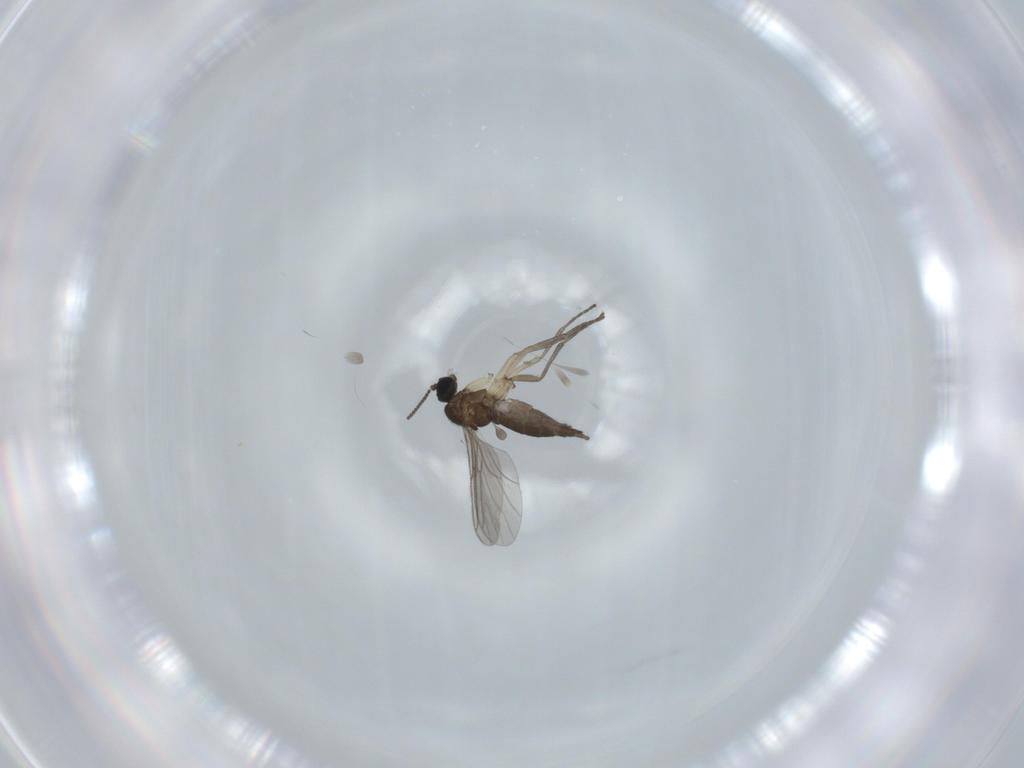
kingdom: Animalia
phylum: Arthropoda
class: Insecta
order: Diptera
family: Sciaridae
